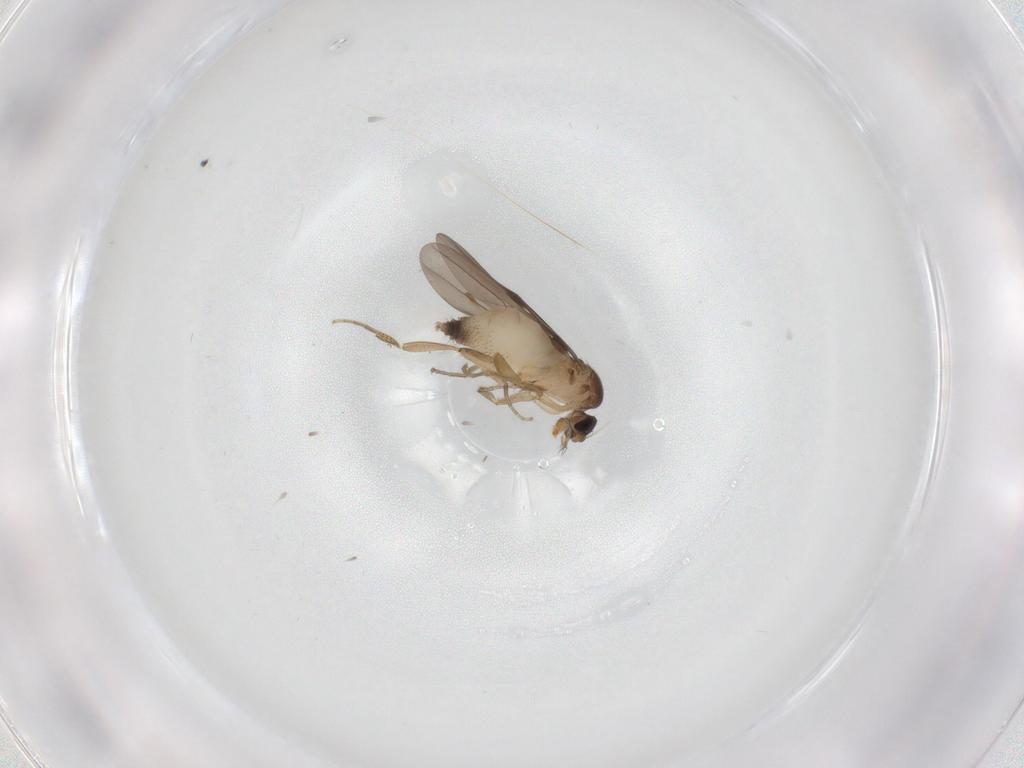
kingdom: Animalia
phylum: Arthropoda
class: Insecta
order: Diptera
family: Phoridae
